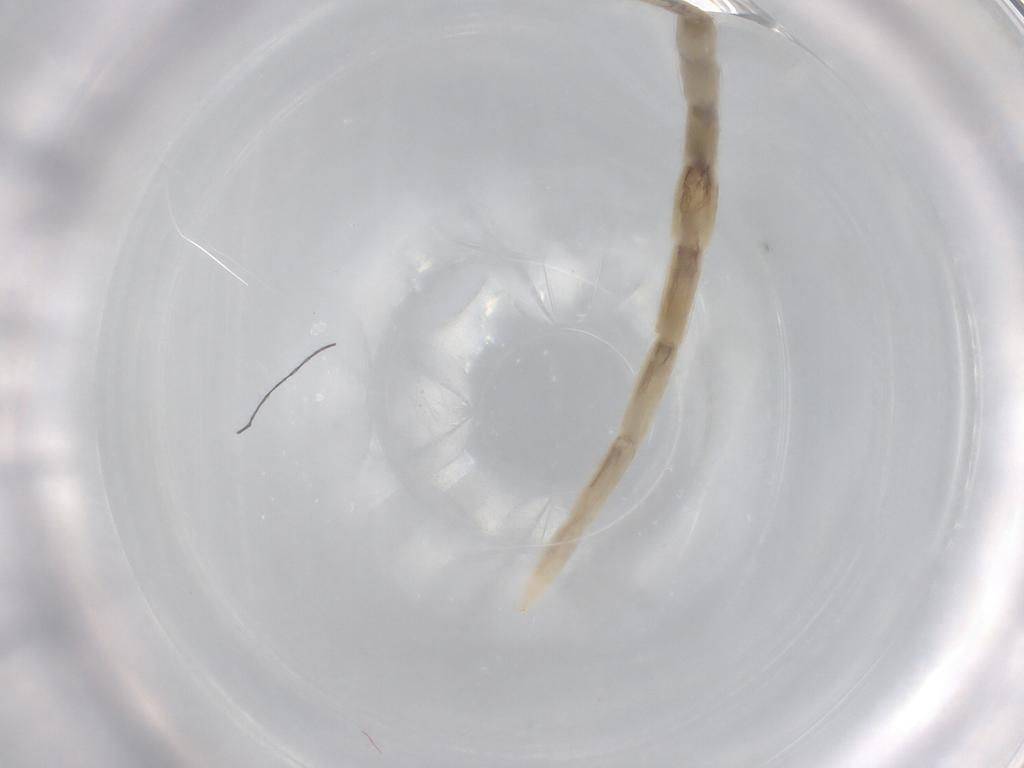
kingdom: Animalia
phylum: Arthropoda
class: Insecta
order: Diptera
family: Ceratopogonidae
